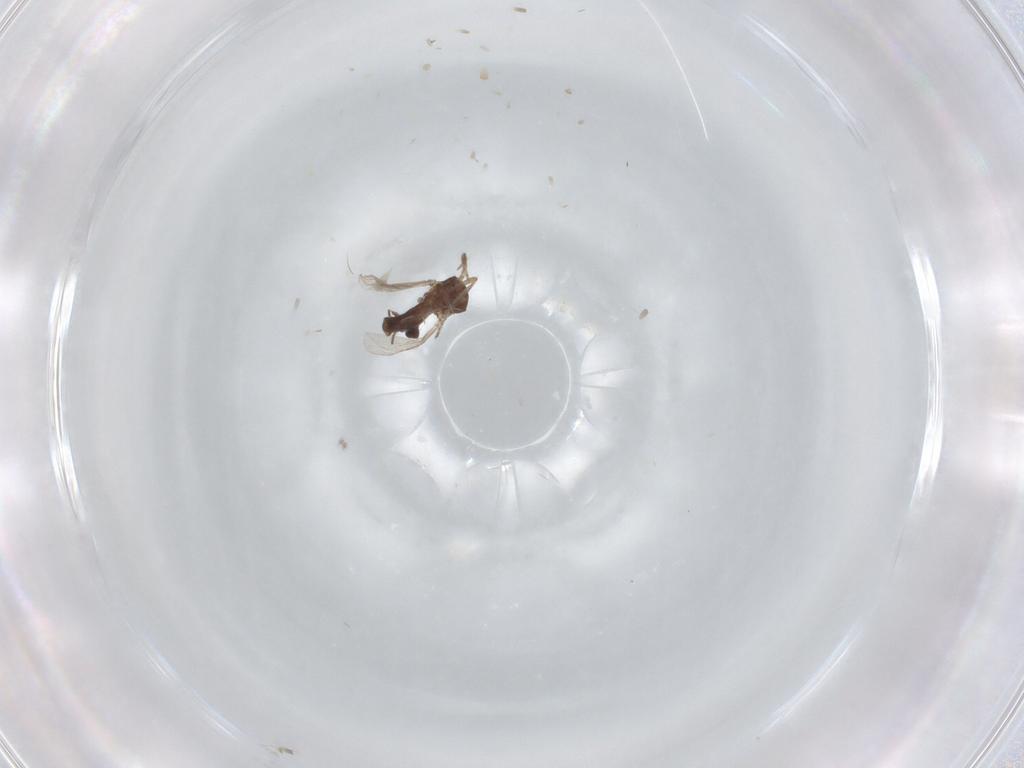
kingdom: Animalia
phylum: Arthropoda
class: Insecta
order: Diptera
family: Ceratopogonidae
